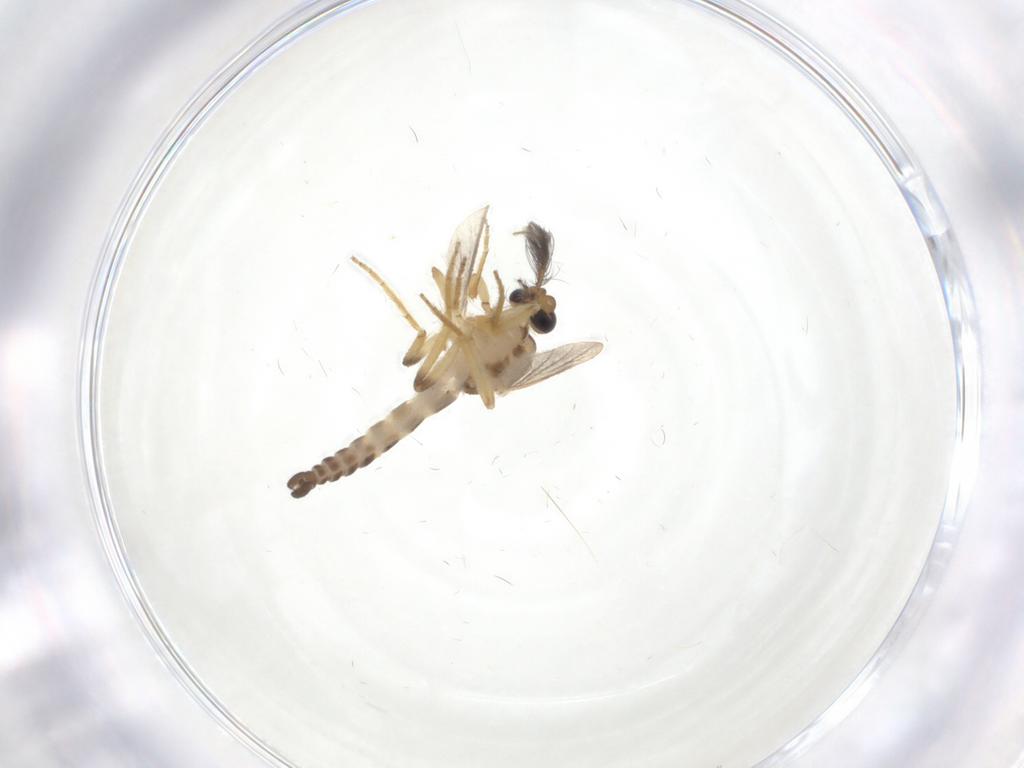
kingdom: Animalia
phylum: Arthropoda
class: Insecta
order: Diptera
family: Ceratopogonidae
